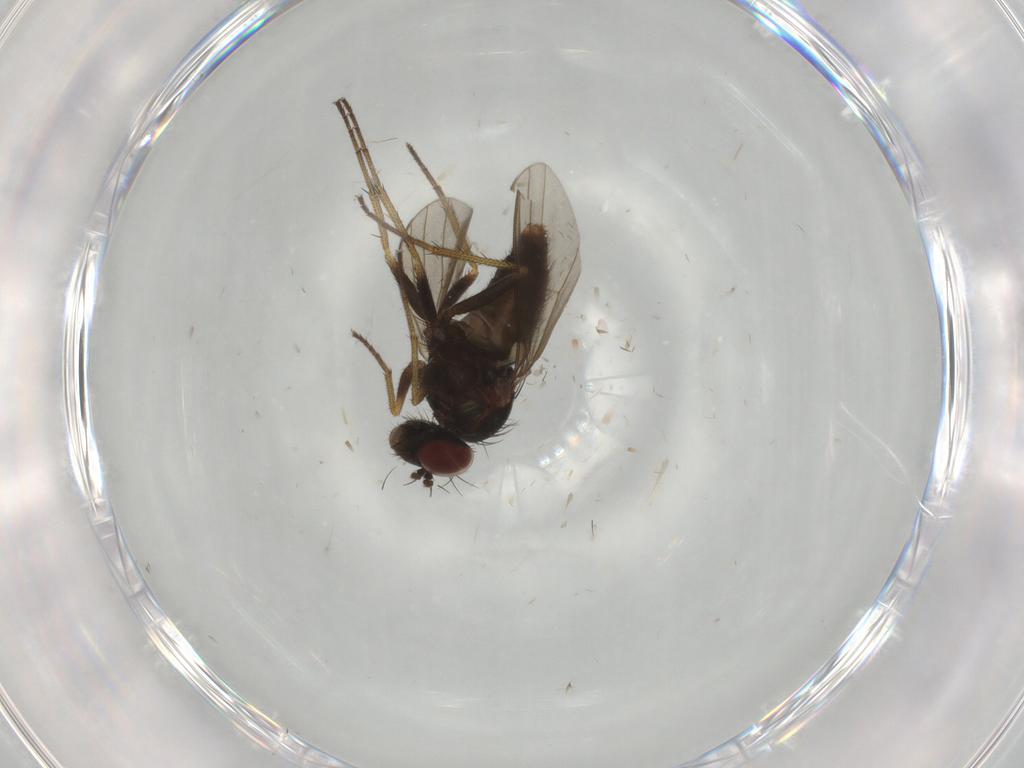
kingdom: Animalia
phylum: Arthropoda
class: Insecta
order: Diptera
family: Dolichopodidae
